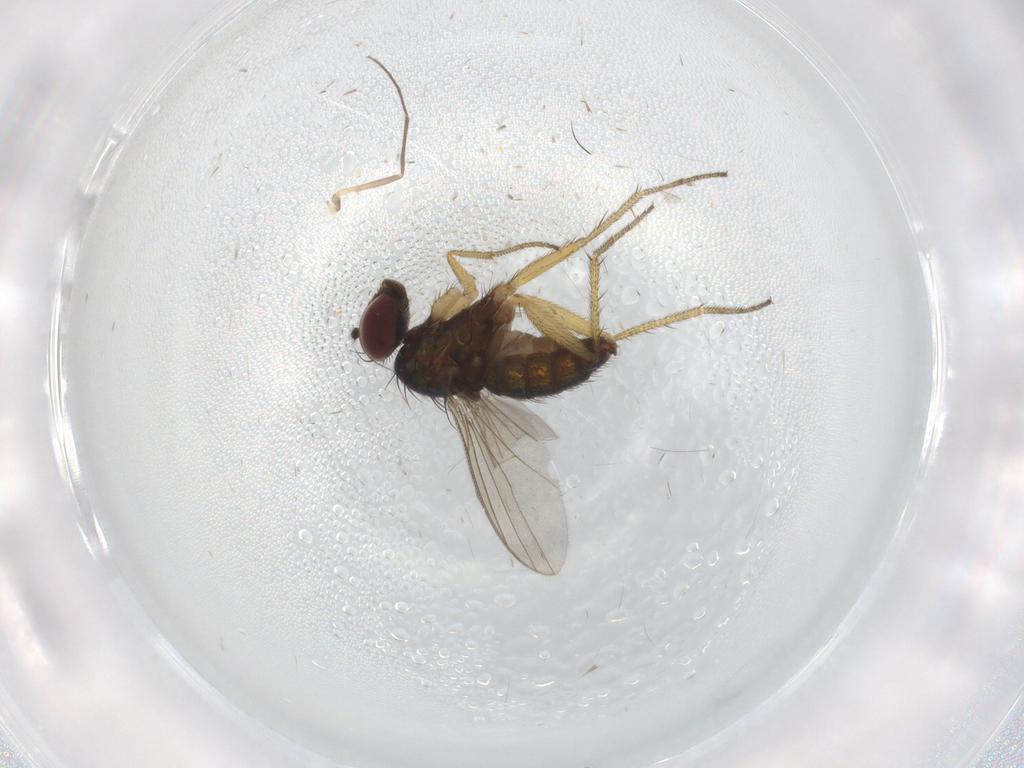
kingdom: Animalia
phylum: Arthropoda
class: Insecta
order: Diptera
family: Dolichopodidae
